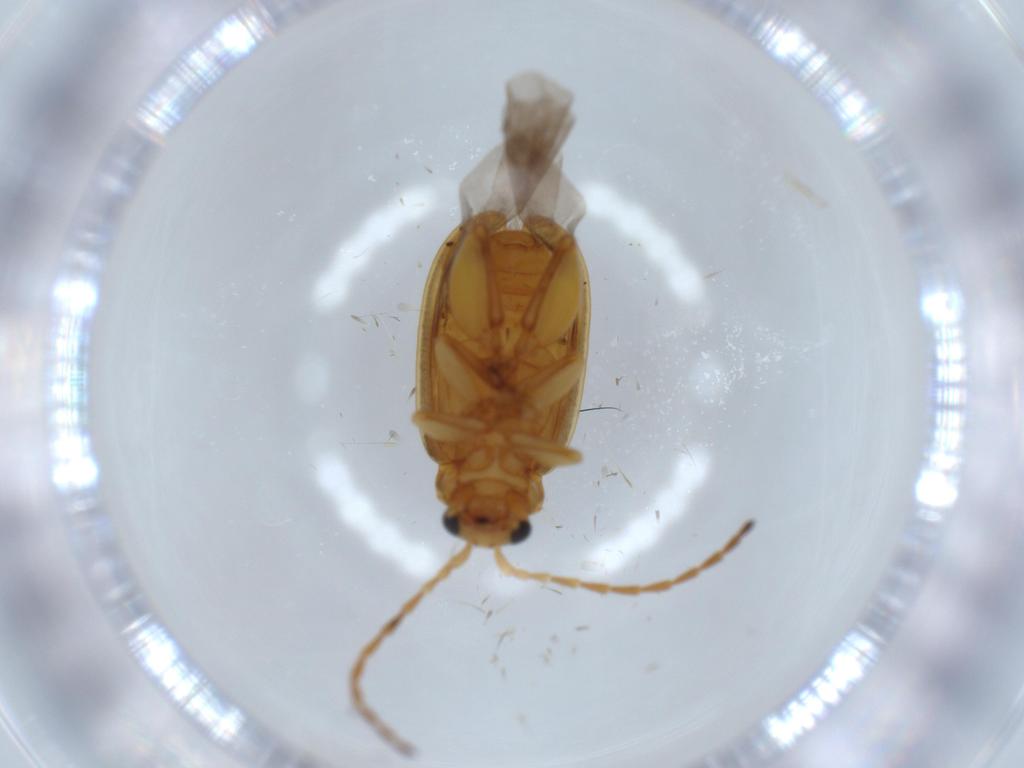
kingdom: Animalia
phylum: Arthropoda
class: Insecta
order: Coleoptera
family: Chrysomelidae
